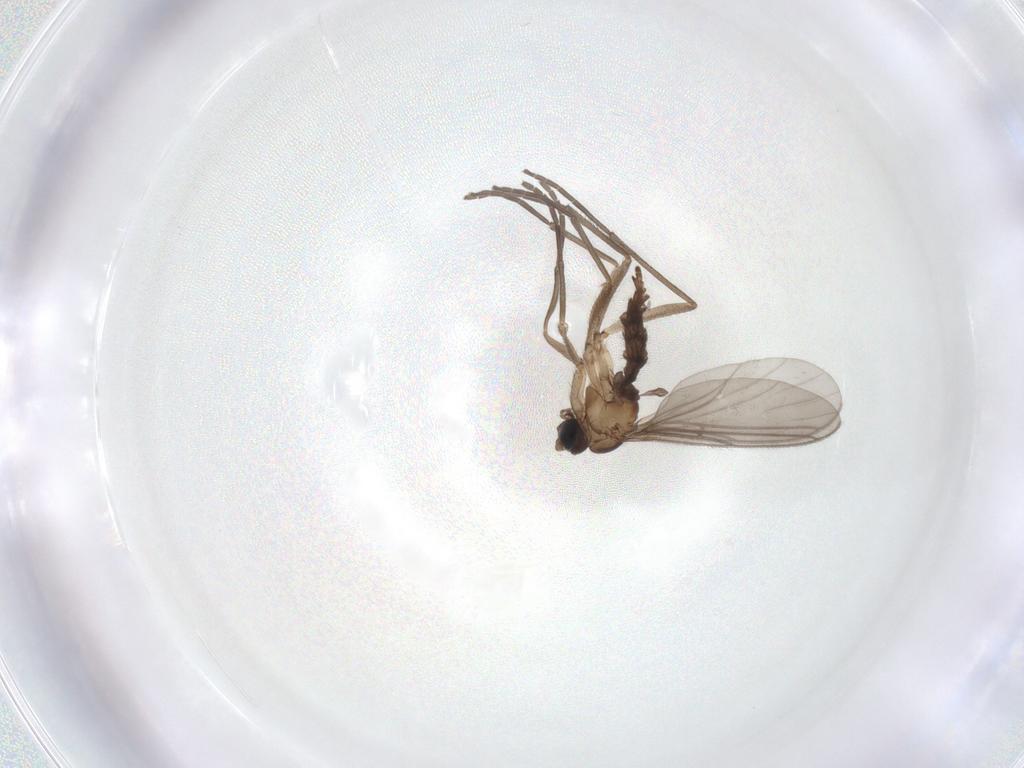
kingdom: Animalia
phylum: Arthropoda
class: Insecta
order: Diptera
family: Sciaridae
